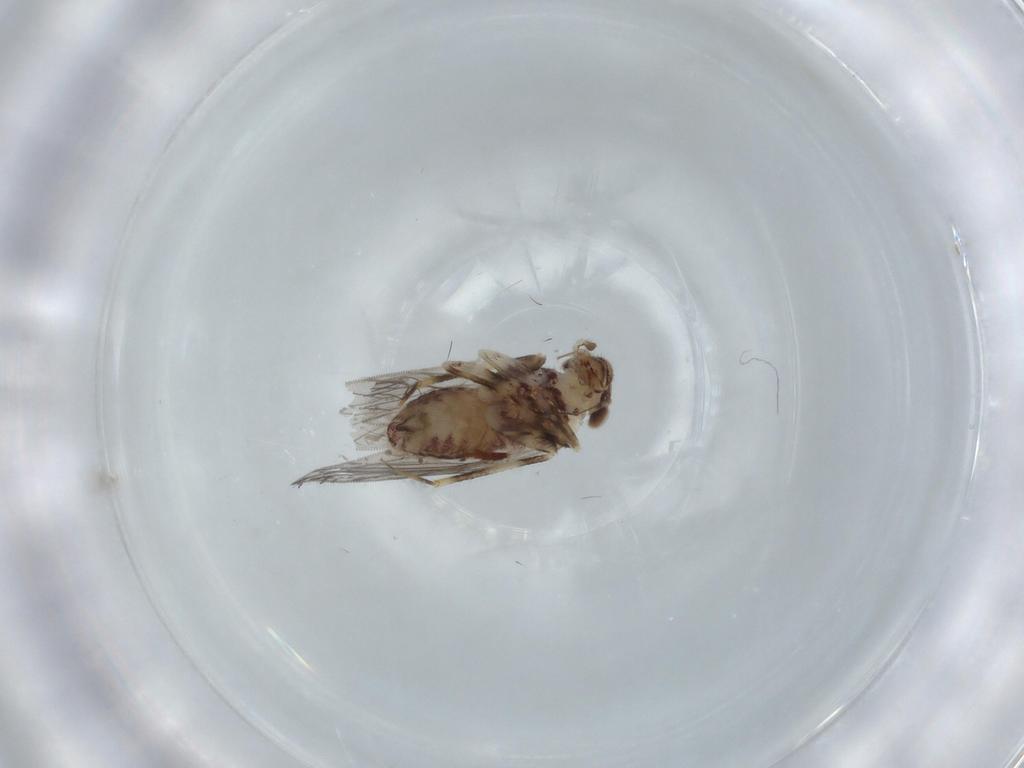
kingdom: Animalia
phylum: Arthropoda
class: Insecta
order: Psocodea
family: Lepidopsocidae
